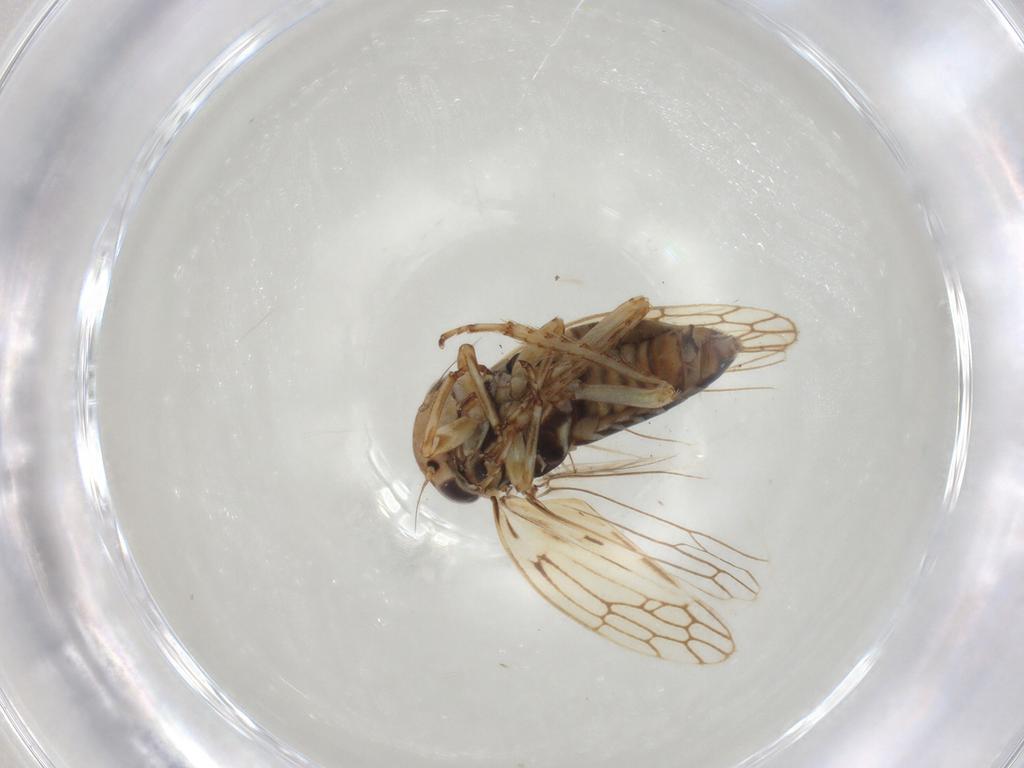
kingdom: Animalia
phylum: Arthropoda
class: Insecta
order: Hemiptera
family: Cicadellidae
